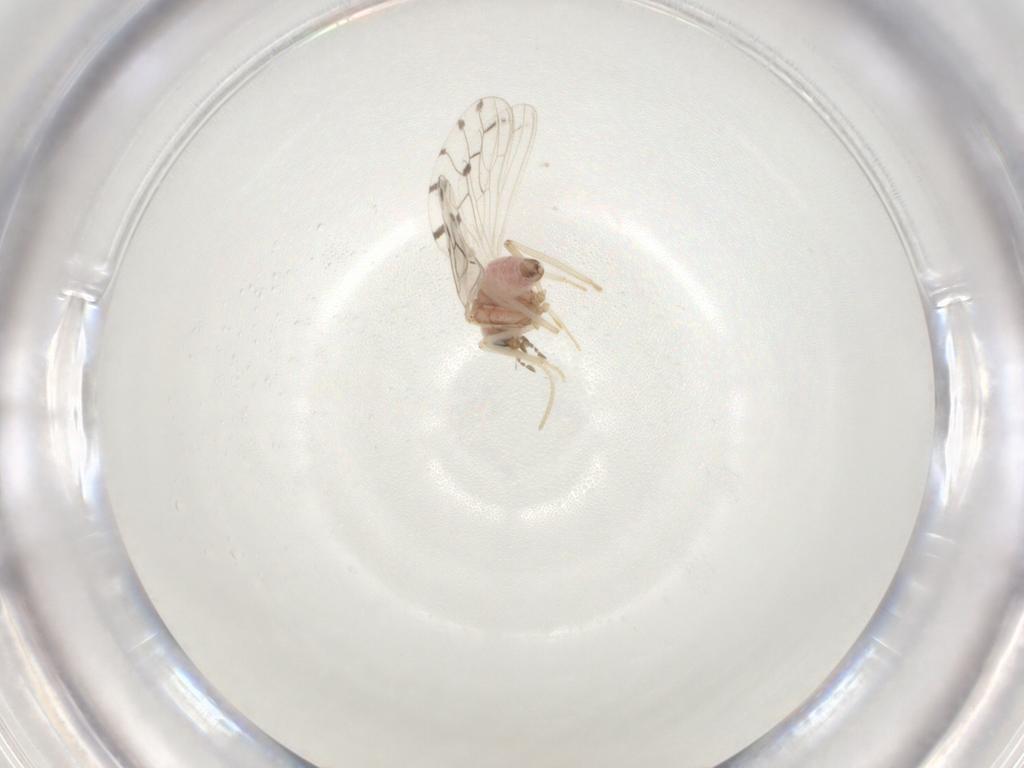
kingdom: Animalia
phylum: Arthropoda
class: Insecta
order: Neuroptera
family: Coniopterygidae
